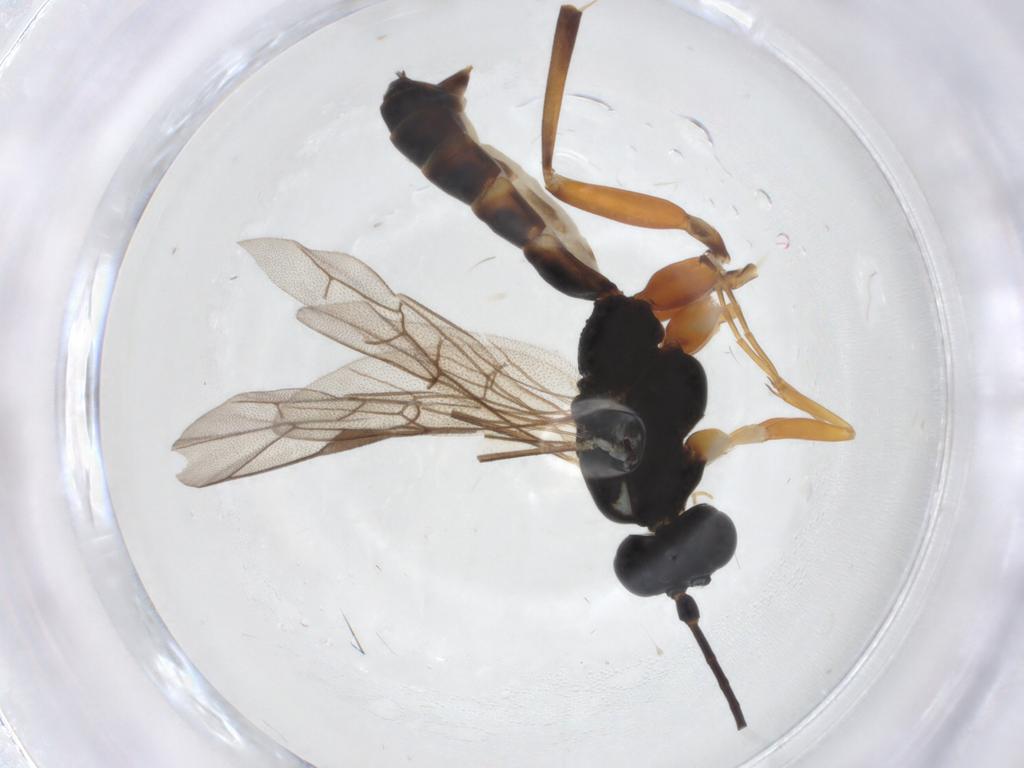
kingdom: Animalia
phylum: Arthropoda
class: Insecta
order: Hymenoptera
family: Ichneumonidae
